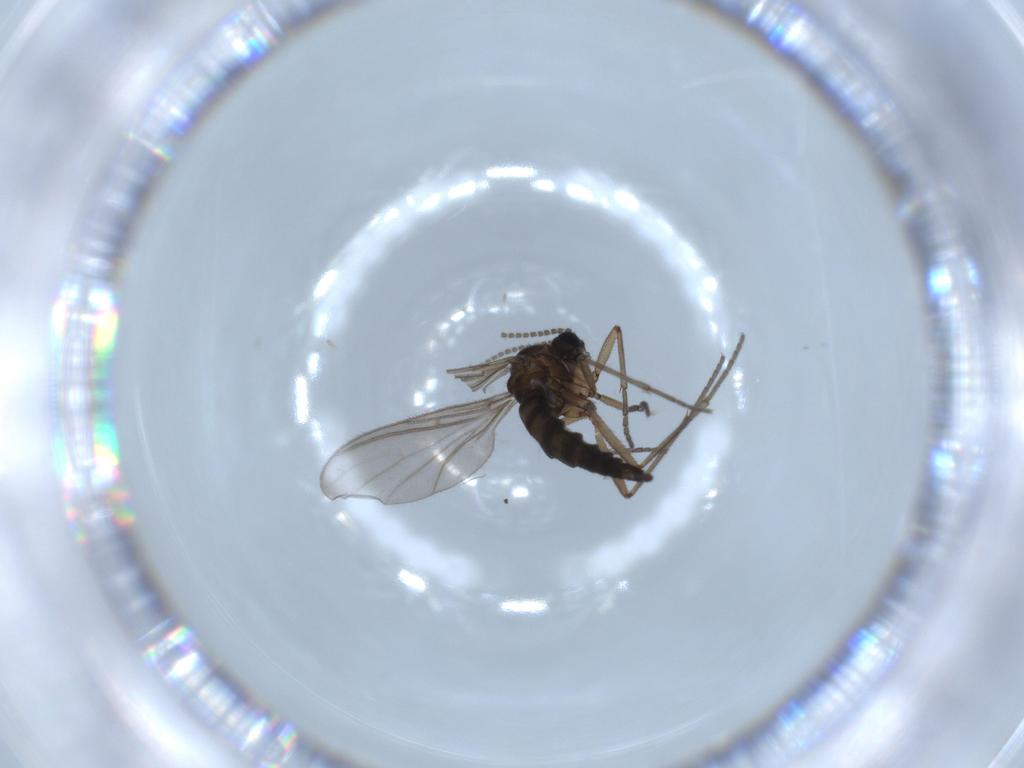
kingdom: Animalia
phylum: Arthropoda
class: Insecta
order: Diptera
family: Sciaridae
